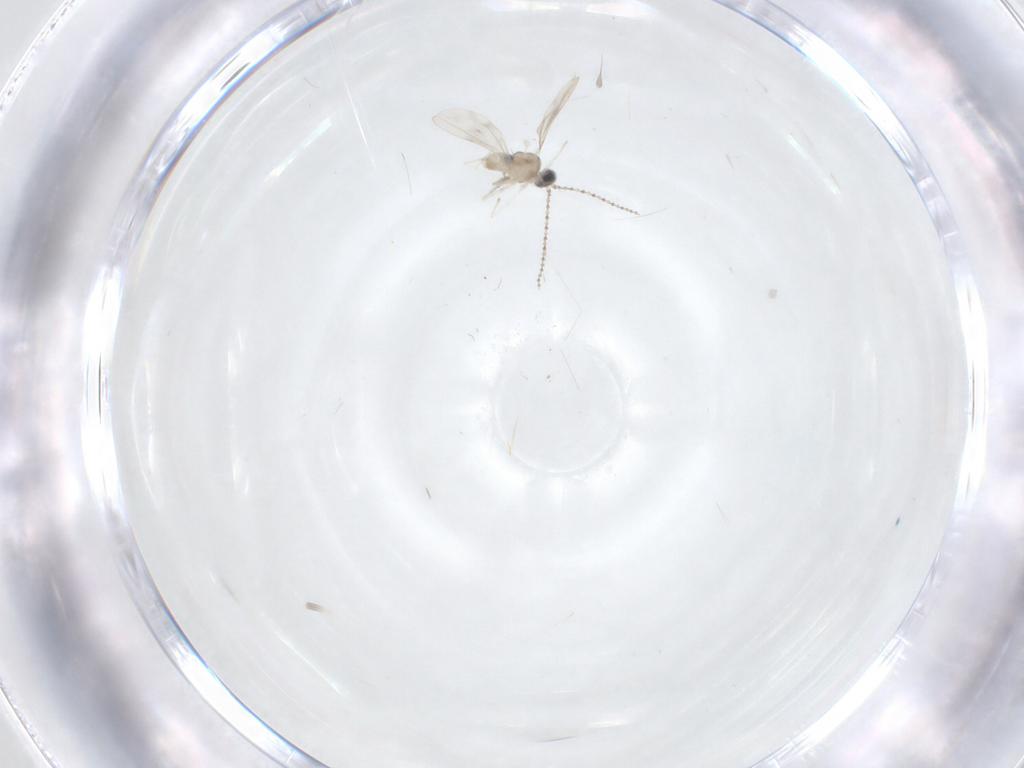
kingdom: Animalia
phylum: Arthropoda
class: Insecta
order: Diptera
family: Cecidomyiidae
